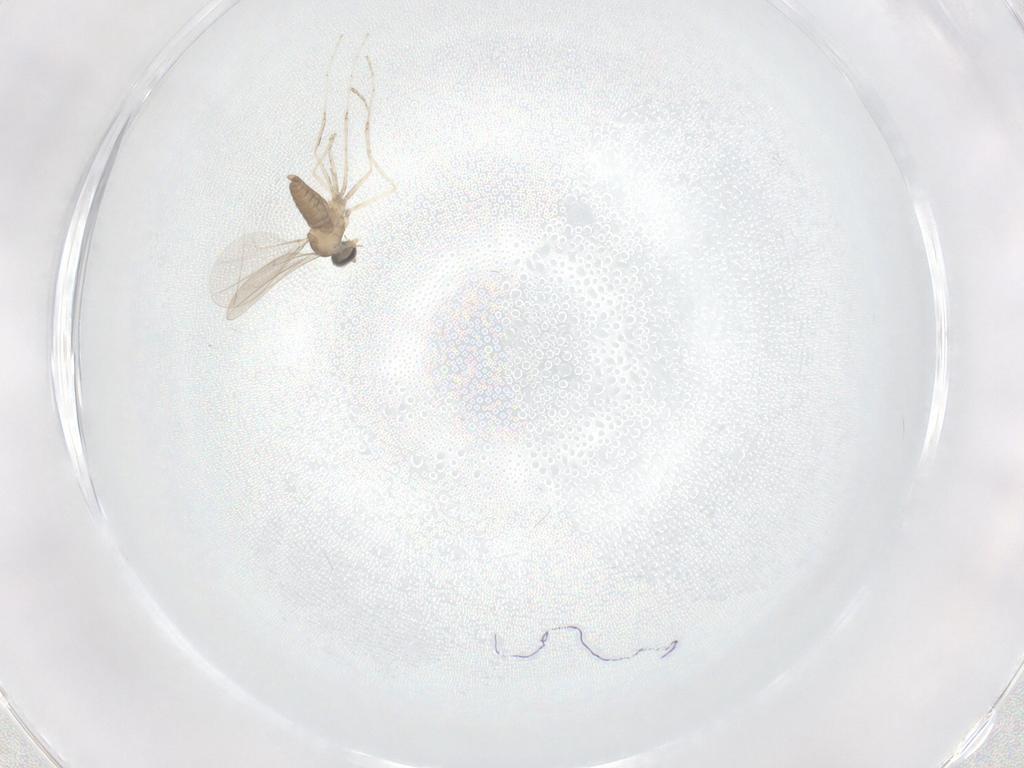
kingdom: Animalia
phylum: Arthropoda
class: Insecta
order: Diptera
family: Cecidomyiidae
